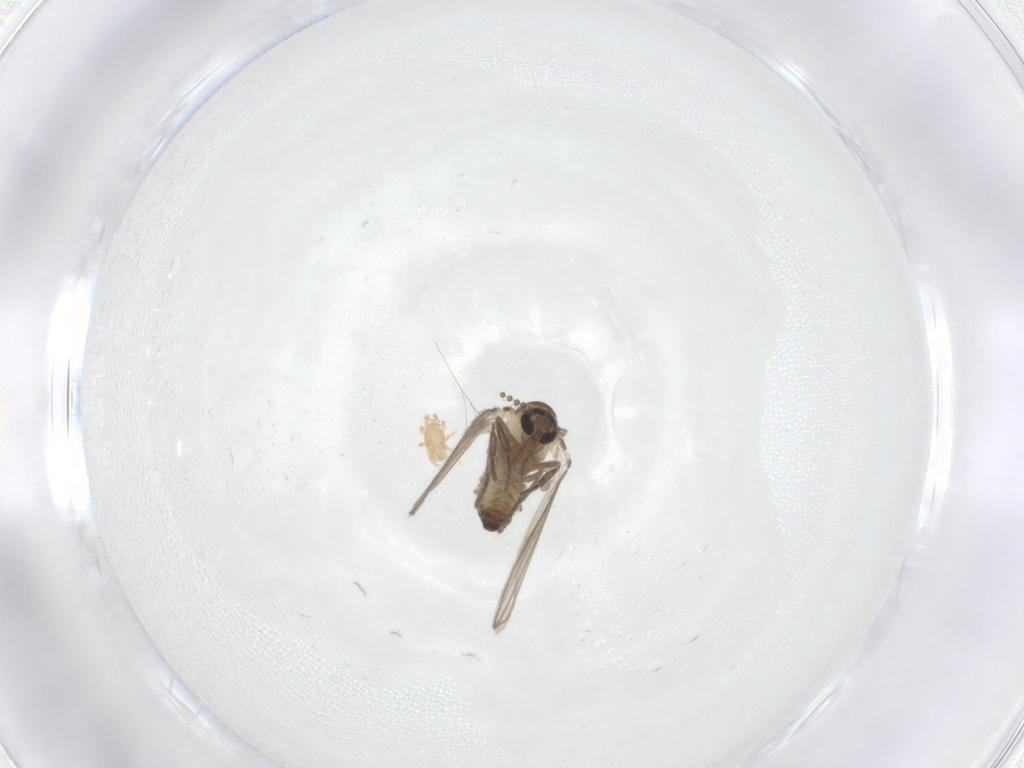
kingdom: Animalia
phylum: Arthropoda
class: Insecta
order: Diptera
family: Psychodidae
